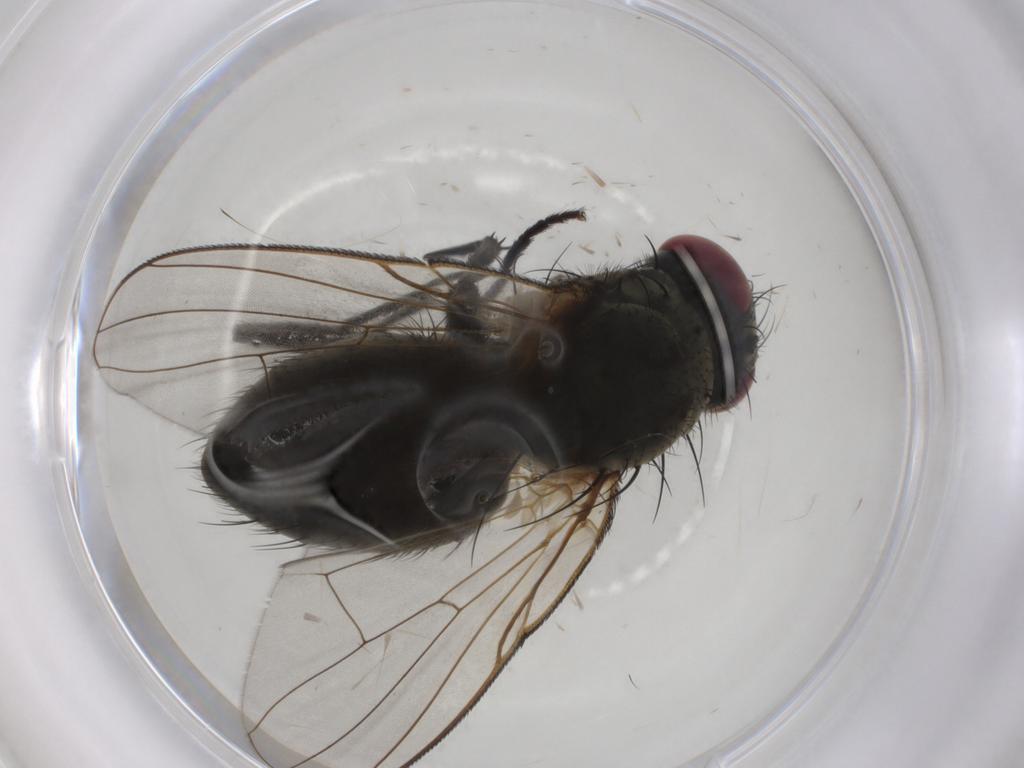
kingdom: Animalia
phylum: Arthropoda
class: Insecta
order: Diptera
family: Muscidae
